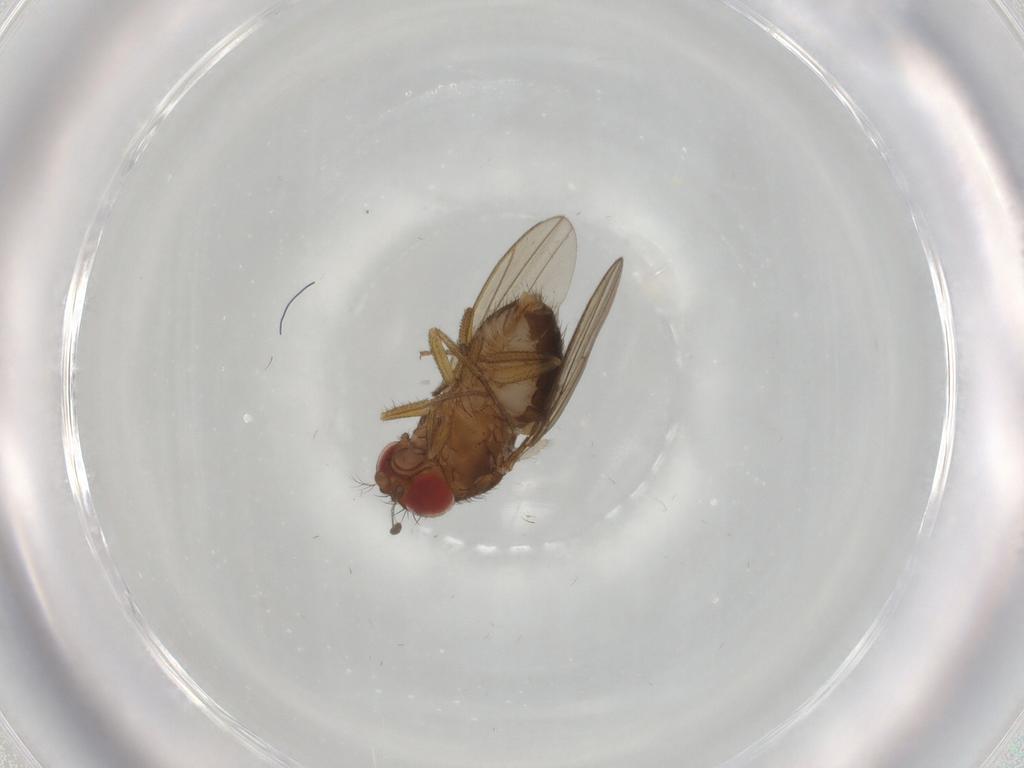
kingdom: Animalia
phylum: Arthropoda
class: Insecta
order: Diptera
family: Drosophilidae
